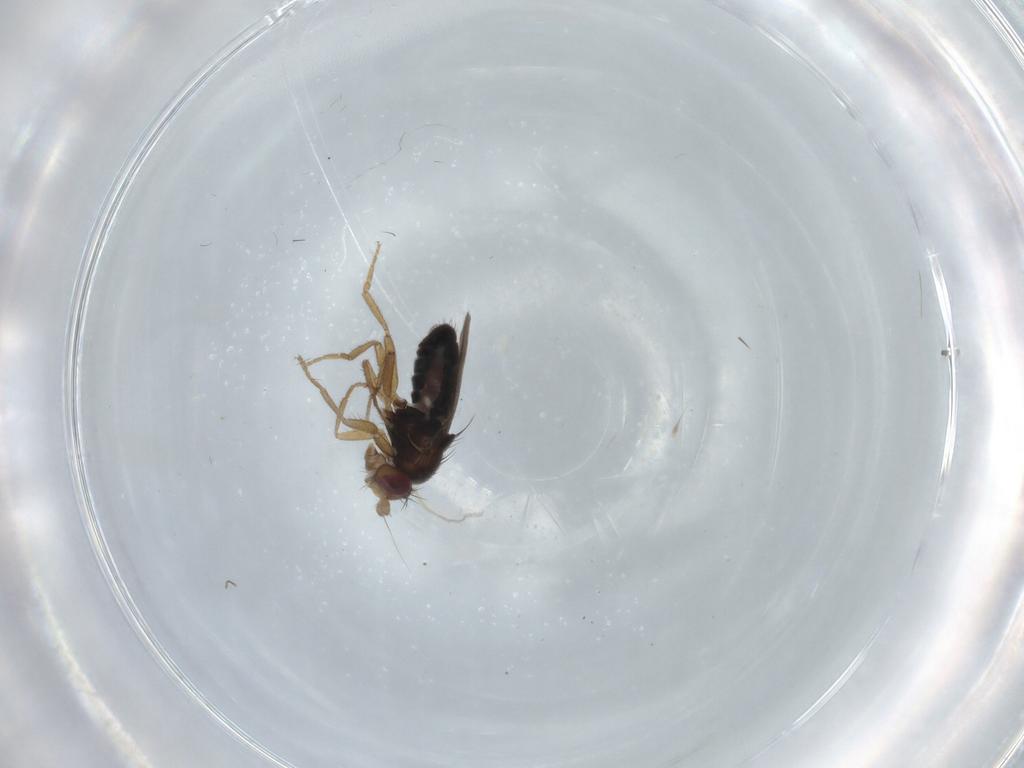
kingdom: Animalia
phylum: Arthropoda
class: Insecta
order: Diptera
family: Sphaeroceridae
